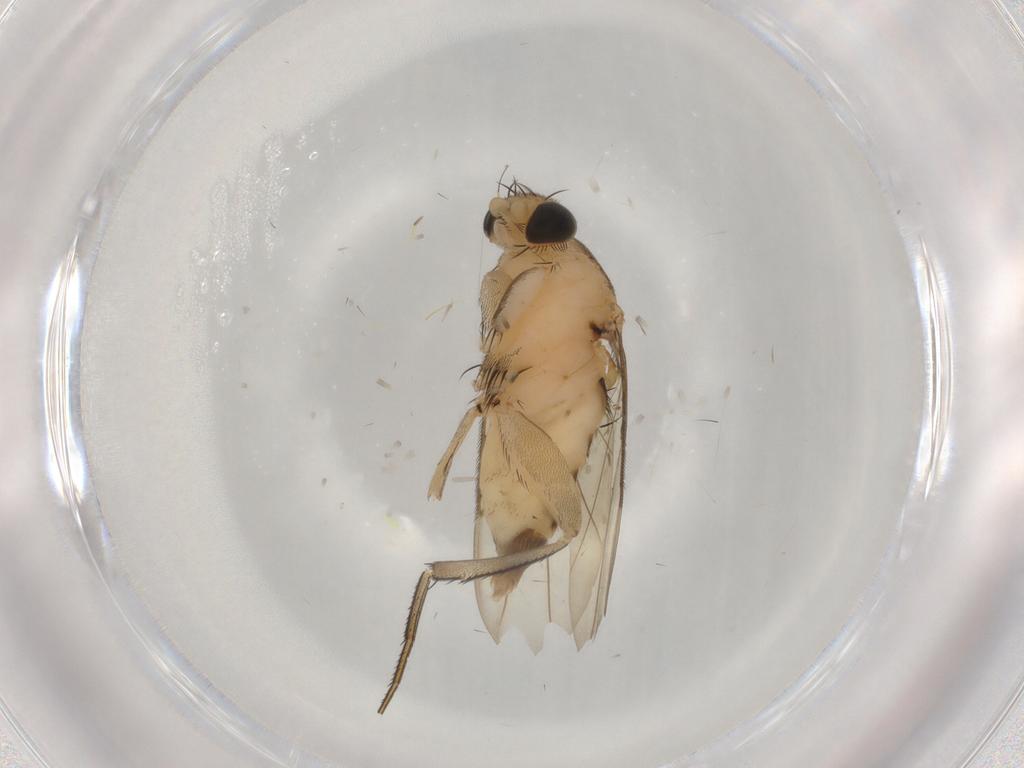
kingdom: Animalia
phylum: Arthropoda
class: Insecta
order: Diptera
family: Phoridae
